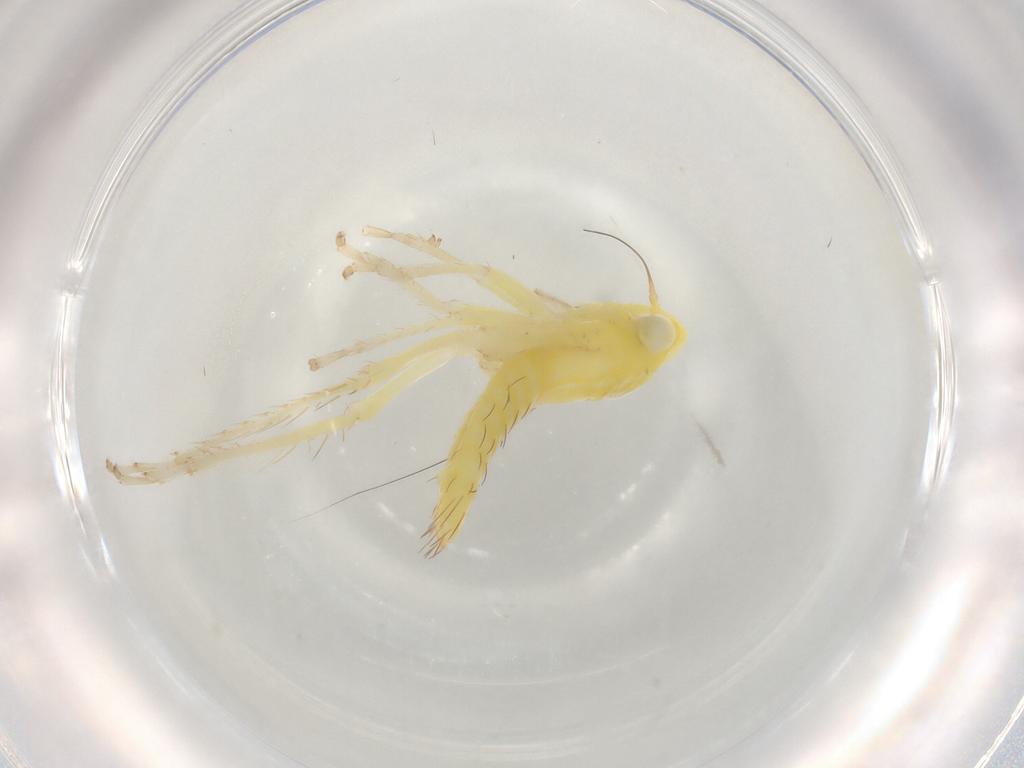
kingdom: Animalia
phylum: Arthropoda
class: Insecta
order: Hemiptera
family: Cicadellidae
